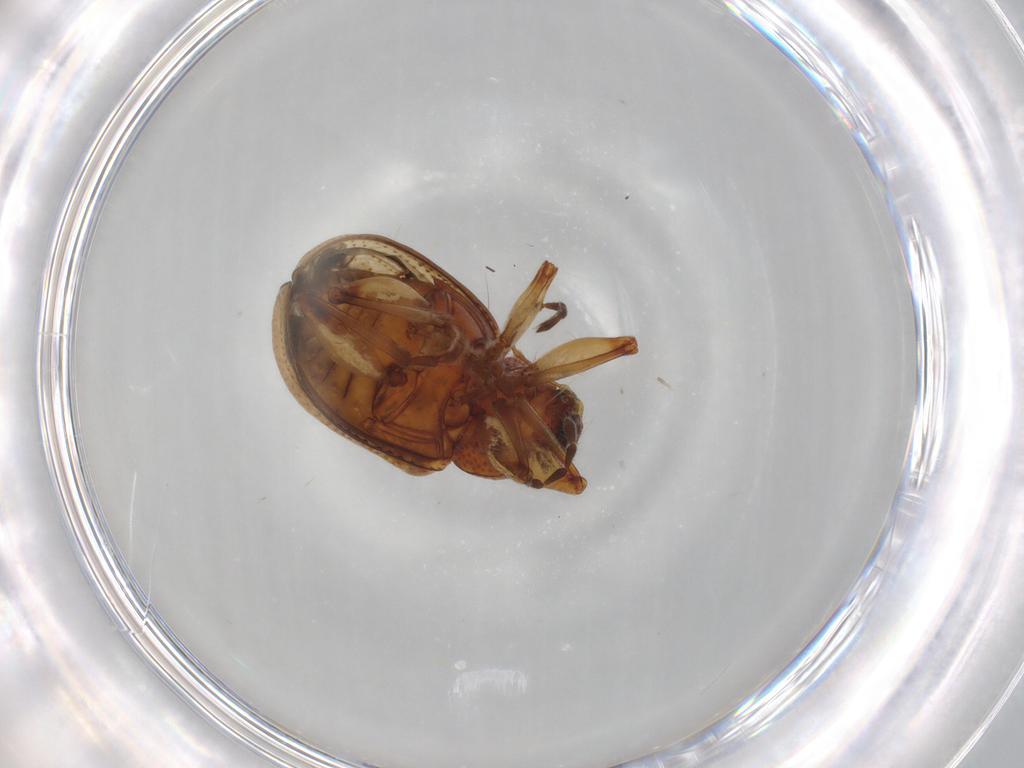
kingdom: Animalia
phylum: Arthropoda
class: Insecta
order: Coleoptera
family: Chrysomelidae
